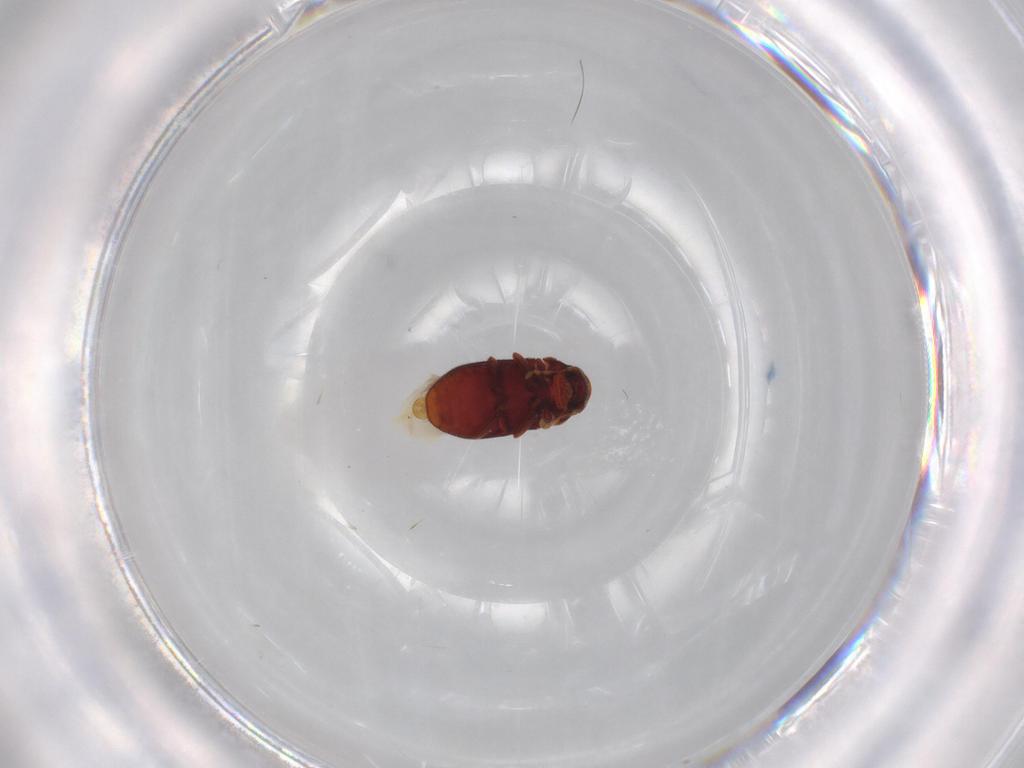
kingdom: Animalia
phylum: Arthropoda
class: Insecta
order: Coleoptera
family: Ptinidae
